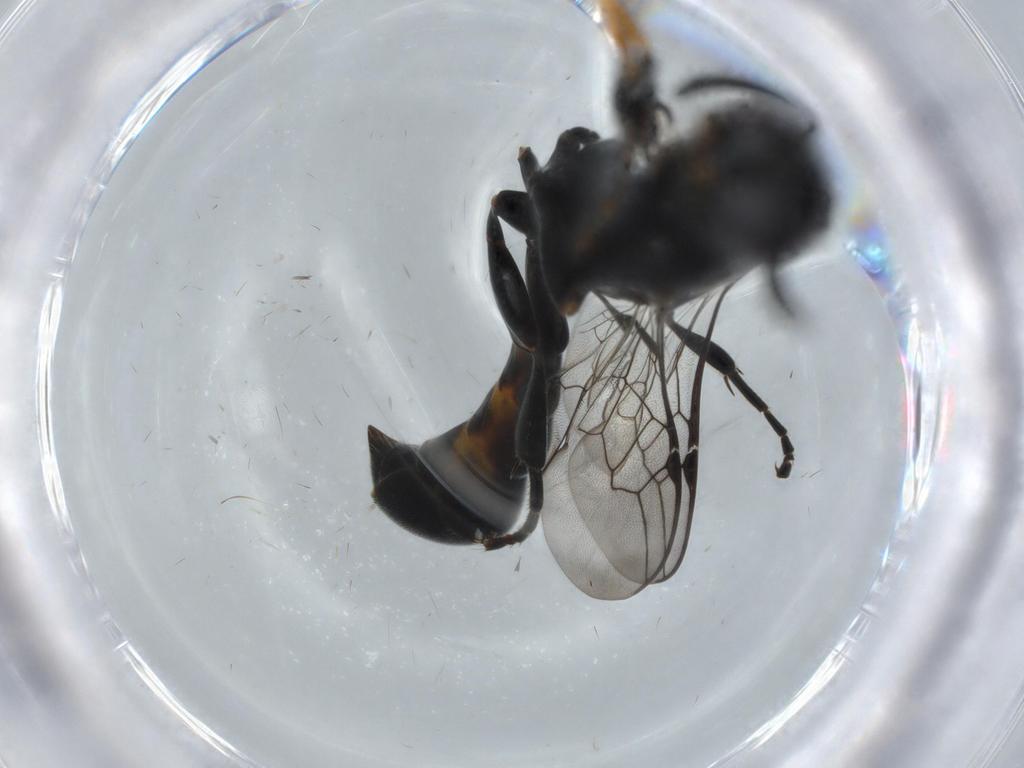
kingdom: Animalia
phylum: Arthropoda
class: Insecta
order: Hymenoptera
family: Crabronidae
